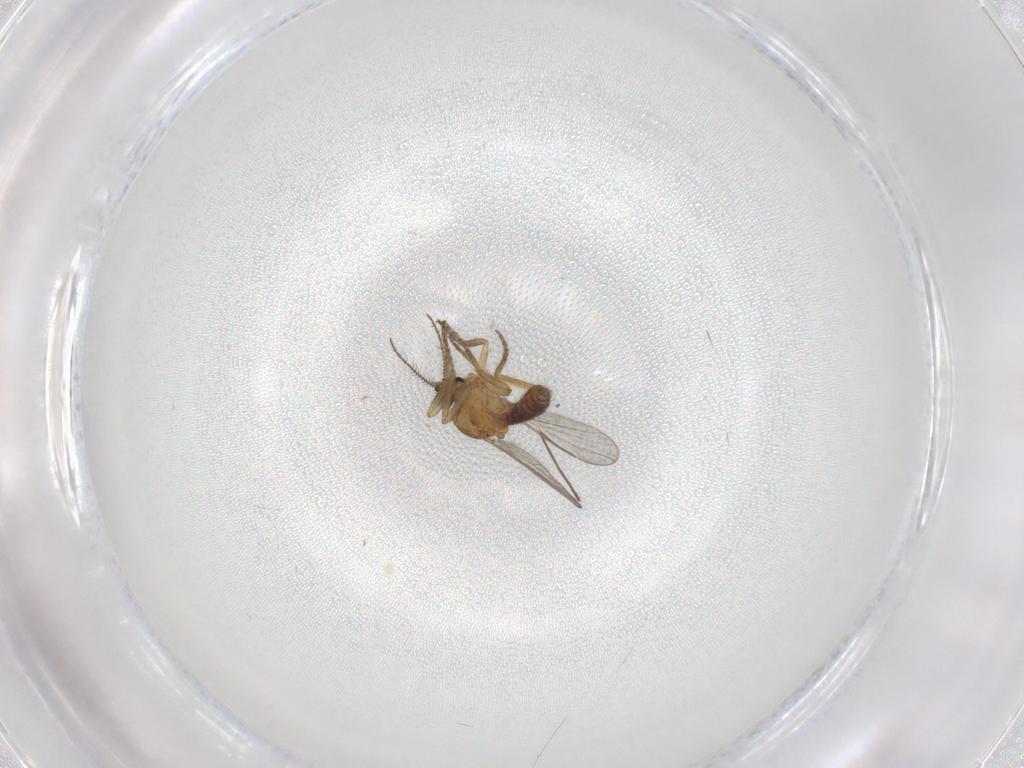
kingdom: Animalia
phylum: Arthropoda
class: Insecta
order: Diptera
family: Ceratopogonidae
